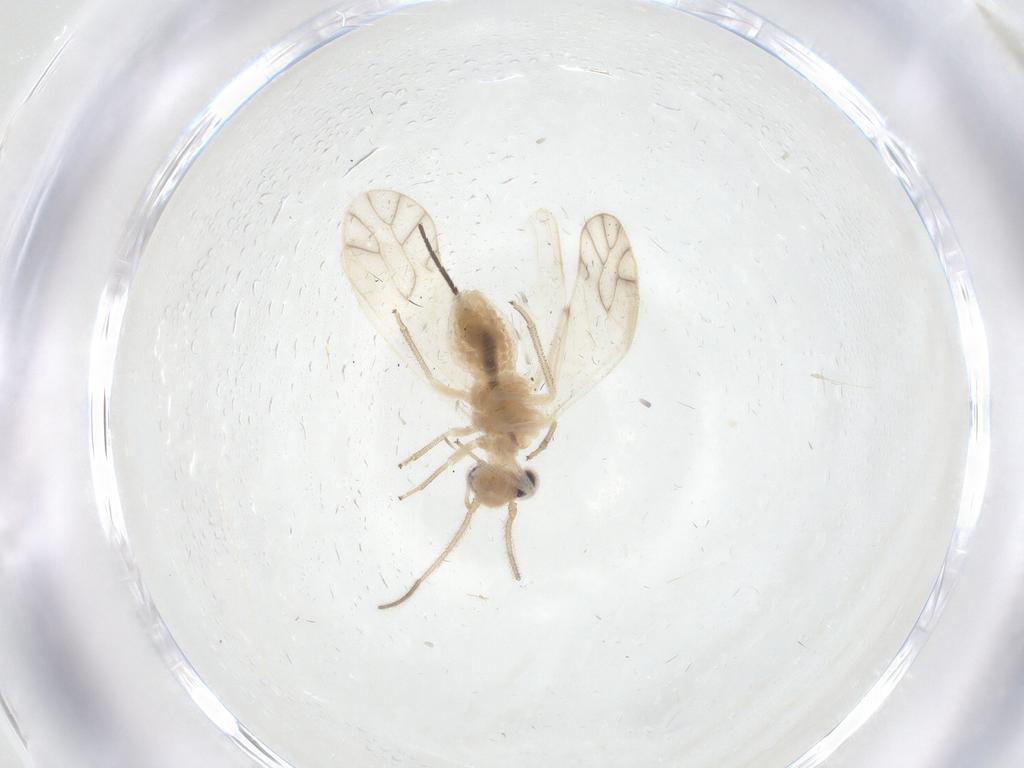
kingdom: Animalia
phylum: Arthropoda
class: Insecta
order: Psocodea
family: Caeciliusidae
